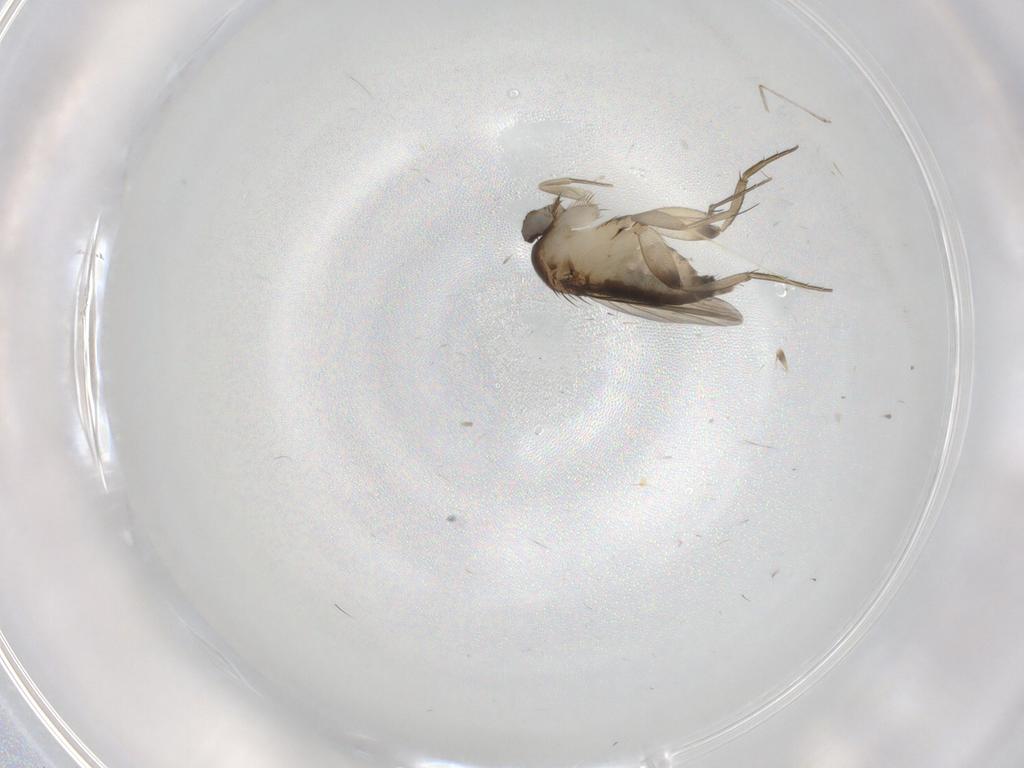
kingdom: Animalia
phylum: Arthropoda
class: Insecta
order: Diptera
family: Phoridae
